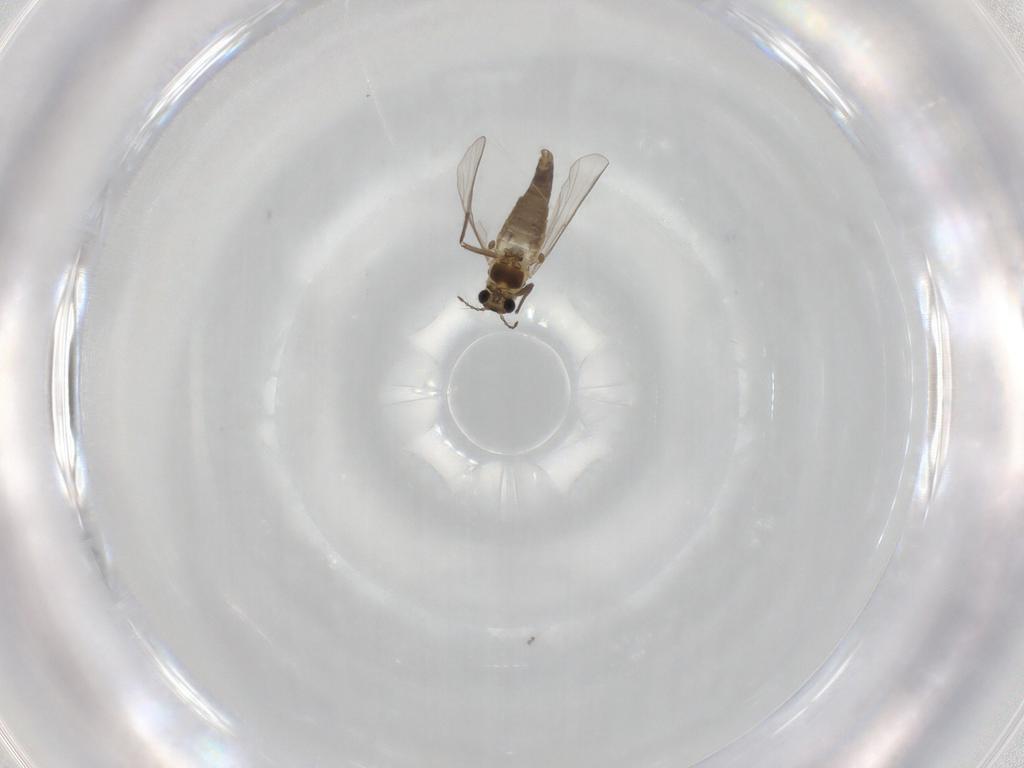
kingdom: Animalia
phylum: Arthropoda
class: Insecta
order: Diptera
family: Chironomidae
